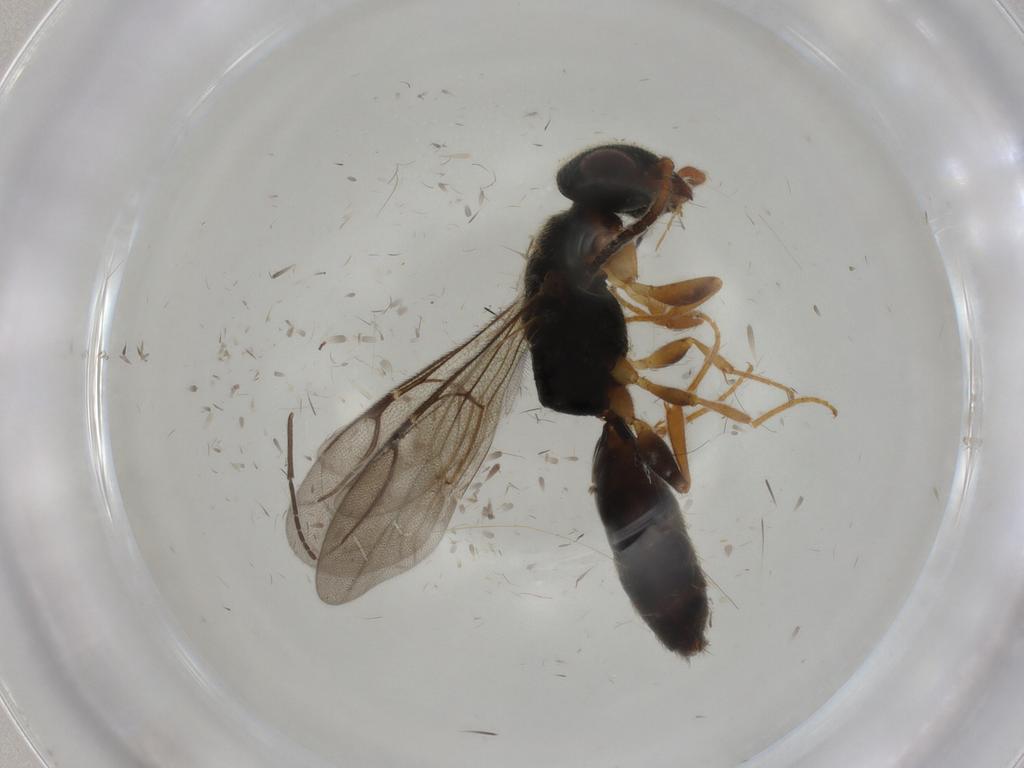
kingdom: Animalia
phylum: Arthropoda
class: Insecta
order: Hymenoptera
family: Bethylidae
